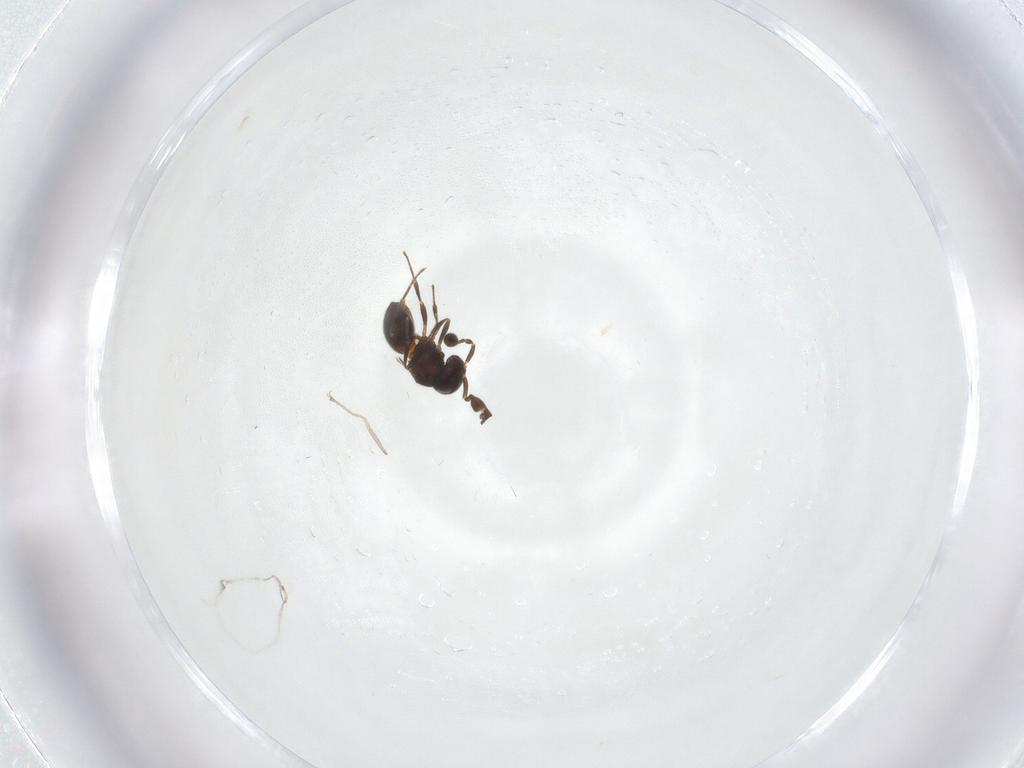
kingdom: Animalia
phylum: Arthropoda
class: Insecta
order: Hymenoptera
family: Scelionidae
